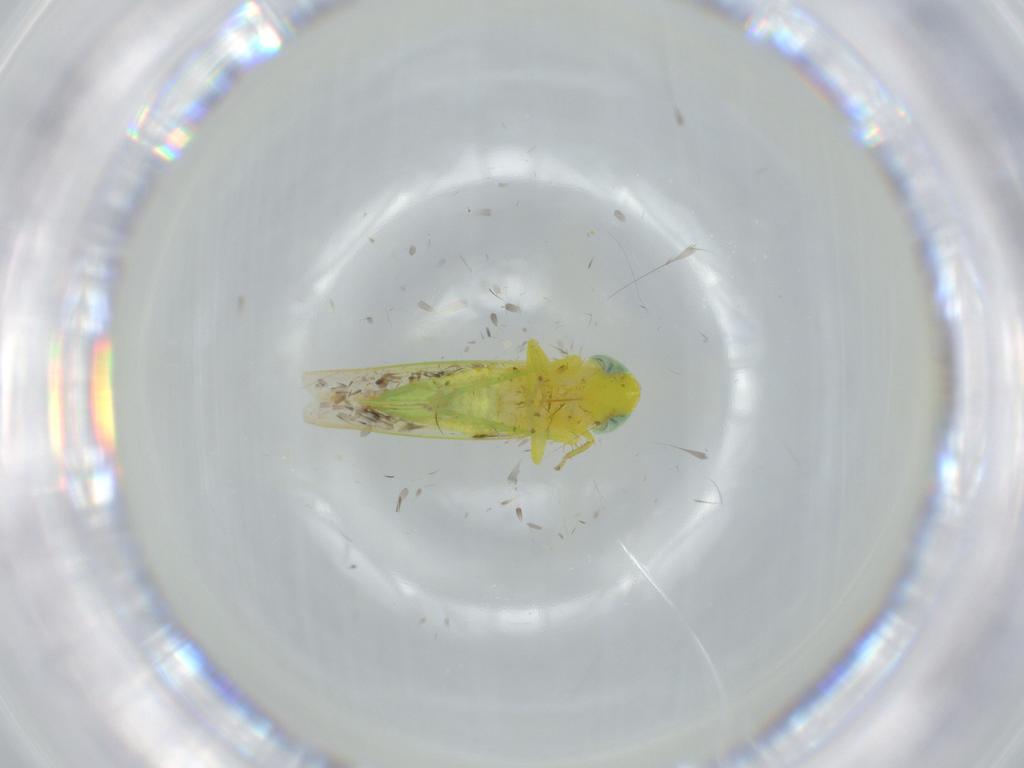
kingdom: Animalia
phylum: Arthropoda
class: Insecta
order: Hemiptera
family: Cicadellidae
